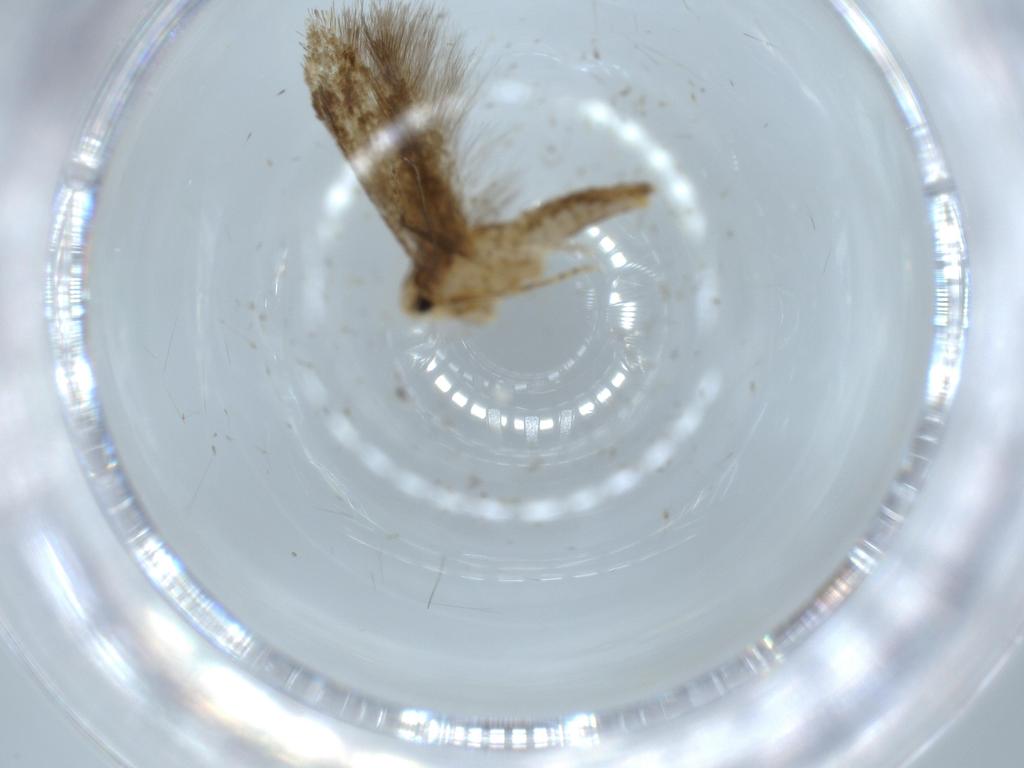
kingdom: Animalia
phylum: Arthropoda
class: Insecta
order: Lepidoptera
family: Tineidae
